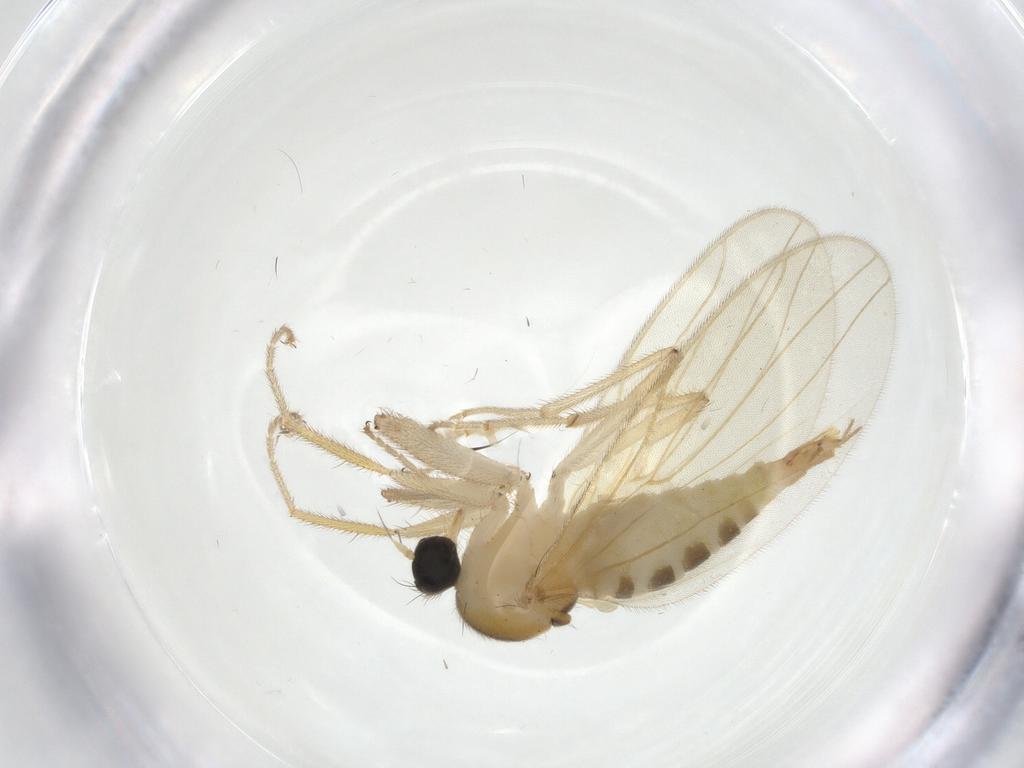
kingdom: Animalia
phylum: Arthropoda
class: Insecta
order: Diptera
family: Hybotidae
